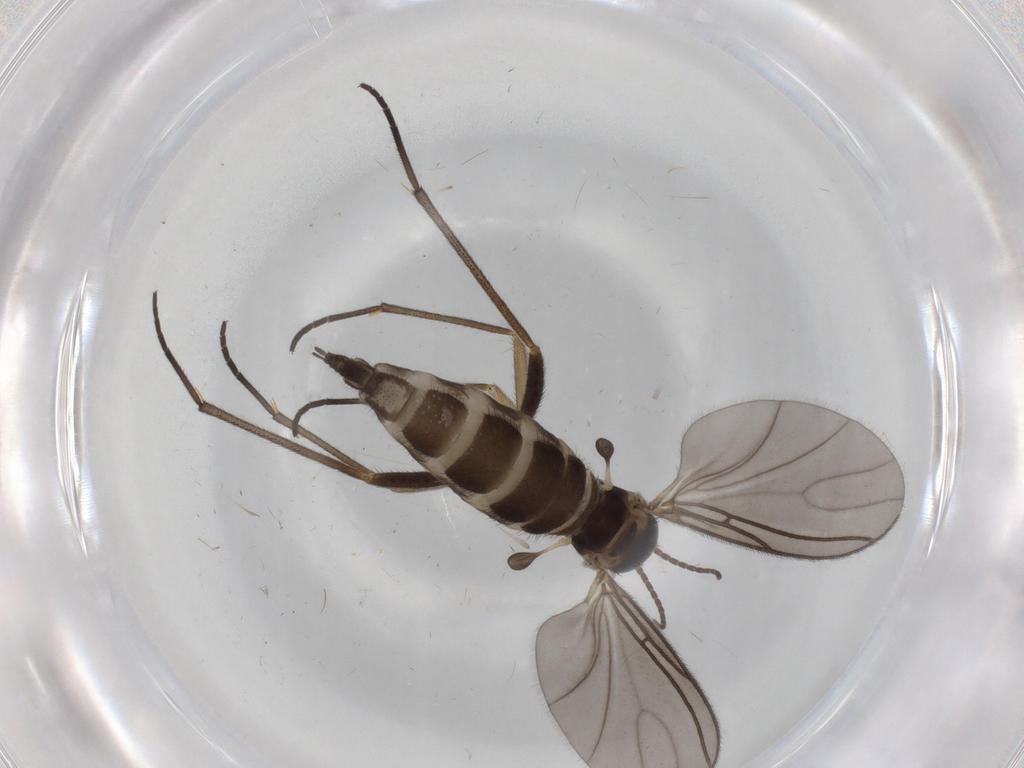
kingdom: Animalia
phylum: Arthropoda
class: Insecta
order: Diptera
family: Sciaridae
